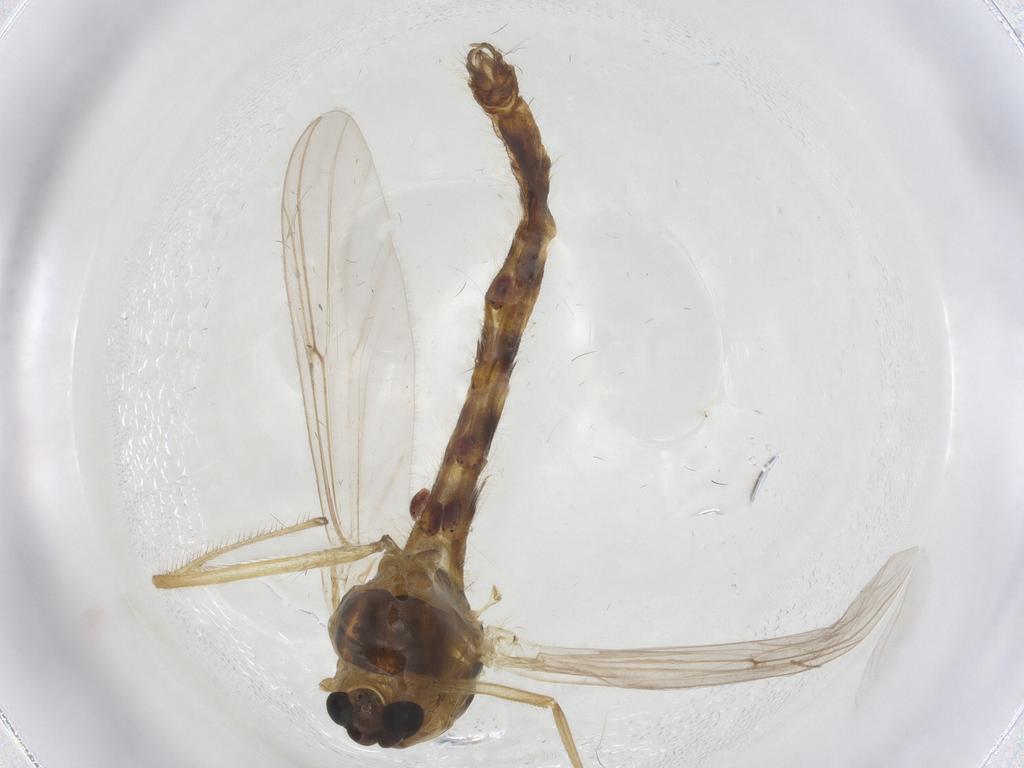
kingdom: Animalia
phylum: Arthropoda
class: Insecta
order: Diptera
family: Chironomidae
